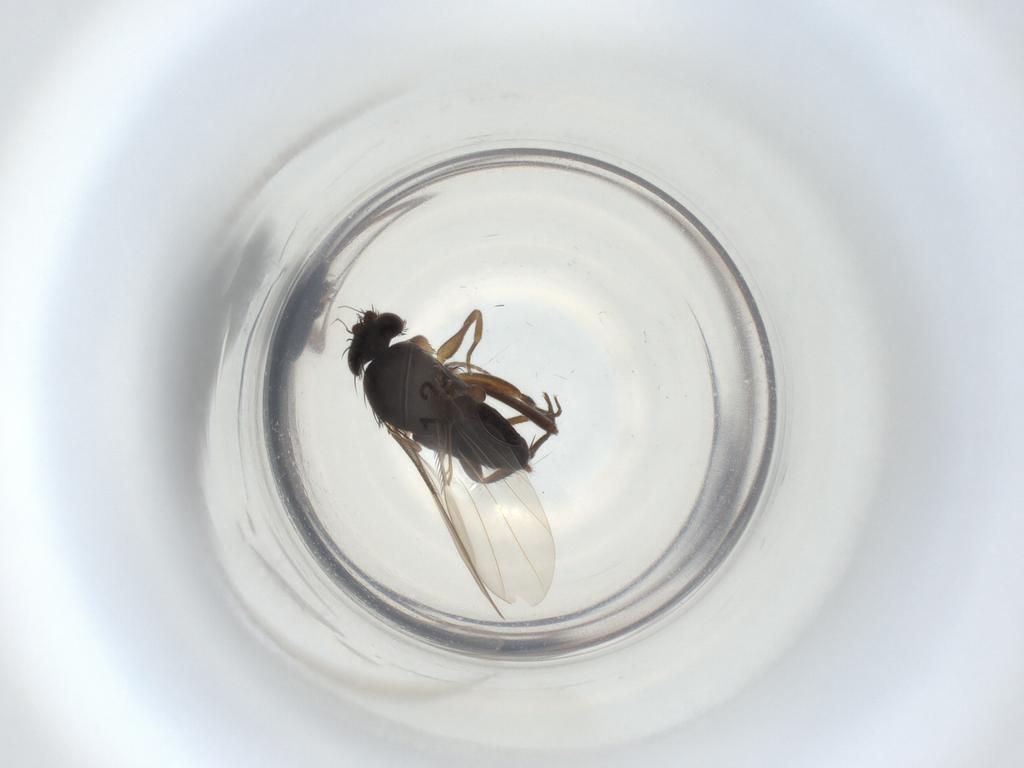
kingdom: Animalia
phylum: Arthropoda
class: Insecta
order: Diptera
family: Phoridae
